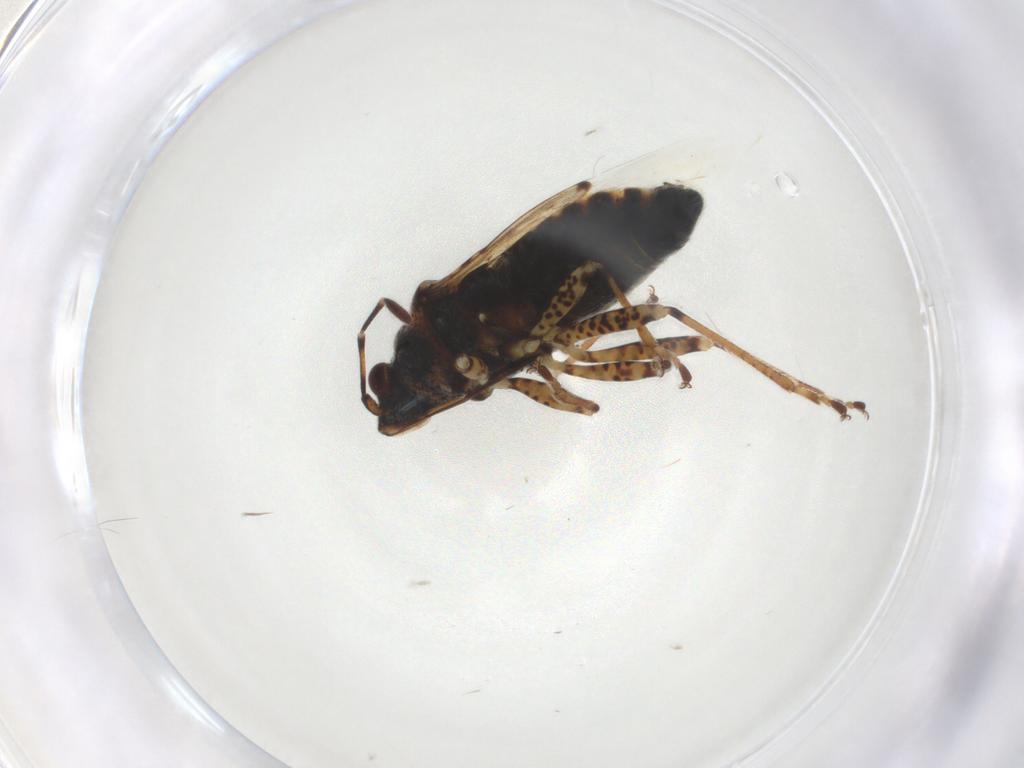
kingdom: Animalia
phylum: Arthropoda
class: Insecta
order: Hemiptera
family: Lygaeidae
